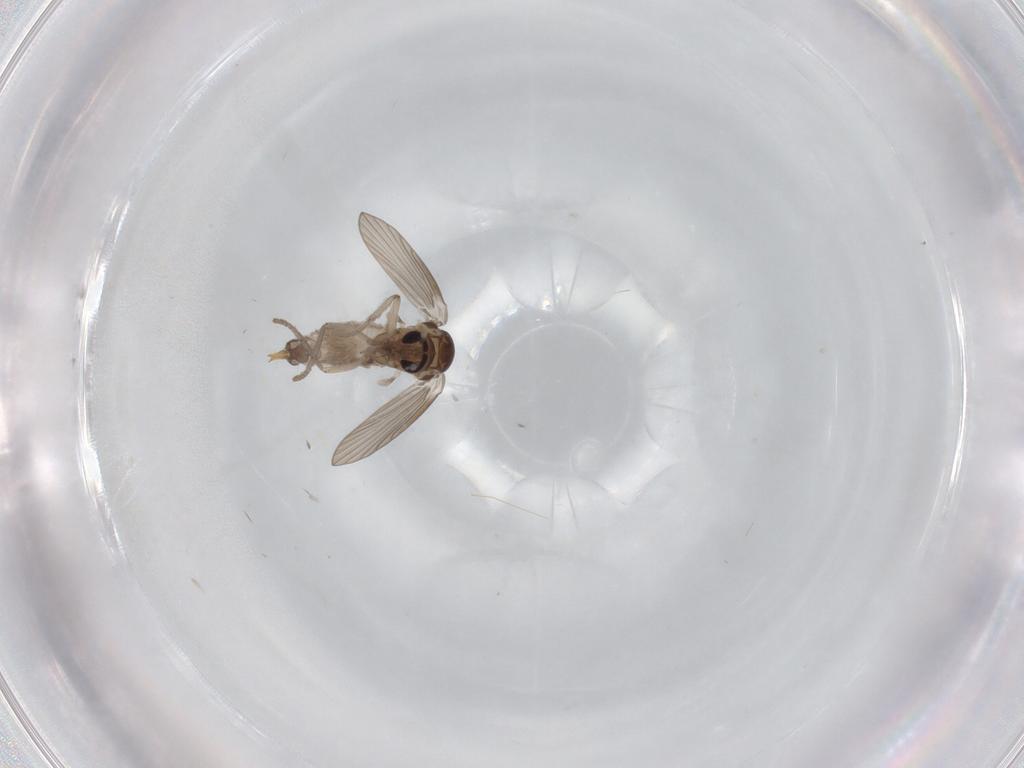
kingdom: Animalia
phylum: Arthropoda
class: Insecta
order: Diptera
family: Psychodidae
